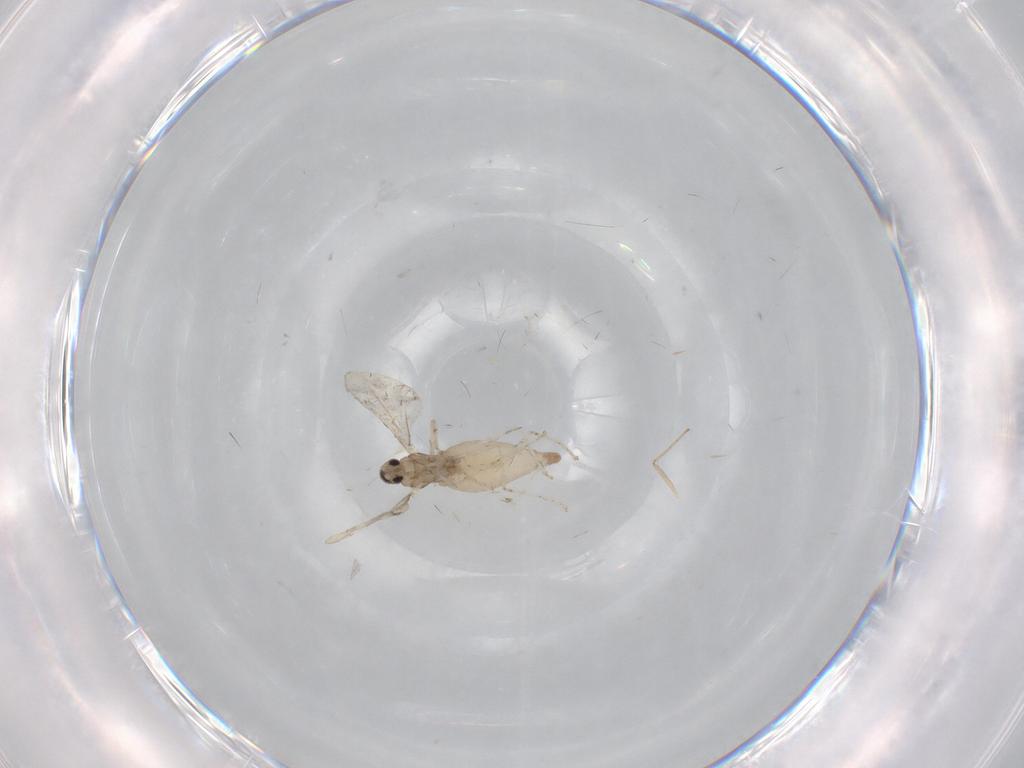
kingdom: Animalia
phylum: Arthropoda
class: Insecta
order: Diptera
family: Cecidomyiidae
